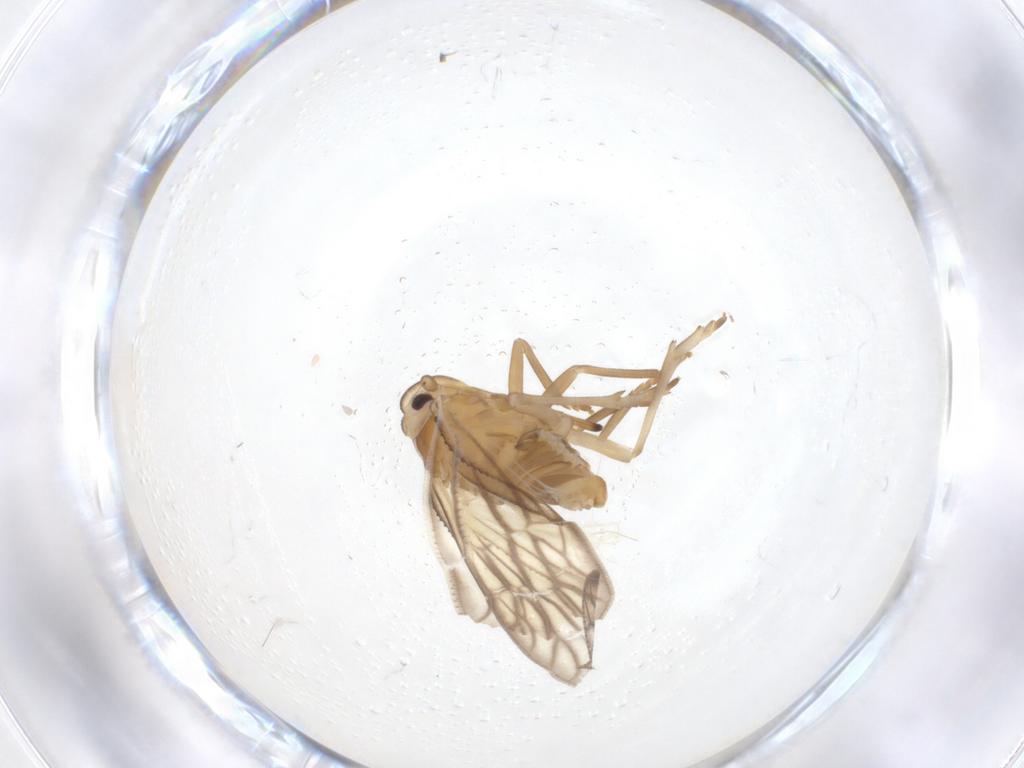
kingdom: Animalia
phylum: Arthropoda
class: Insecta
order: Hemiptera
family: Meenoplidae
